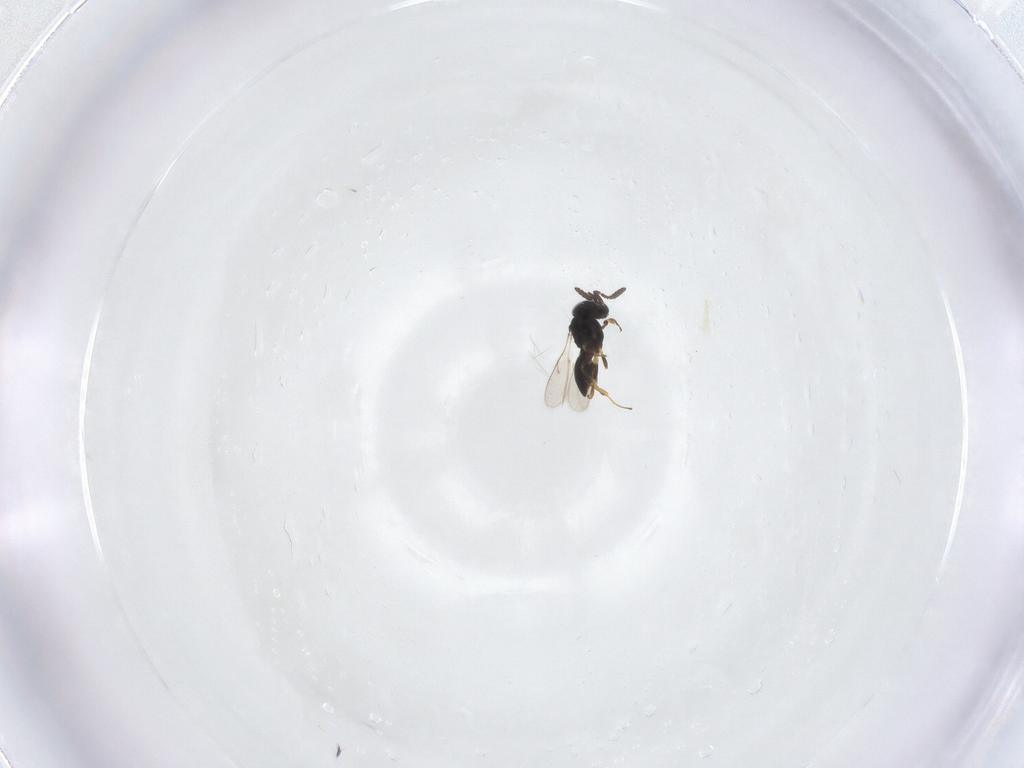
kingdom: Animalia
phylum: Arthropoda
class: Insecta
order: Hymenoptera
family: Scelionidae
